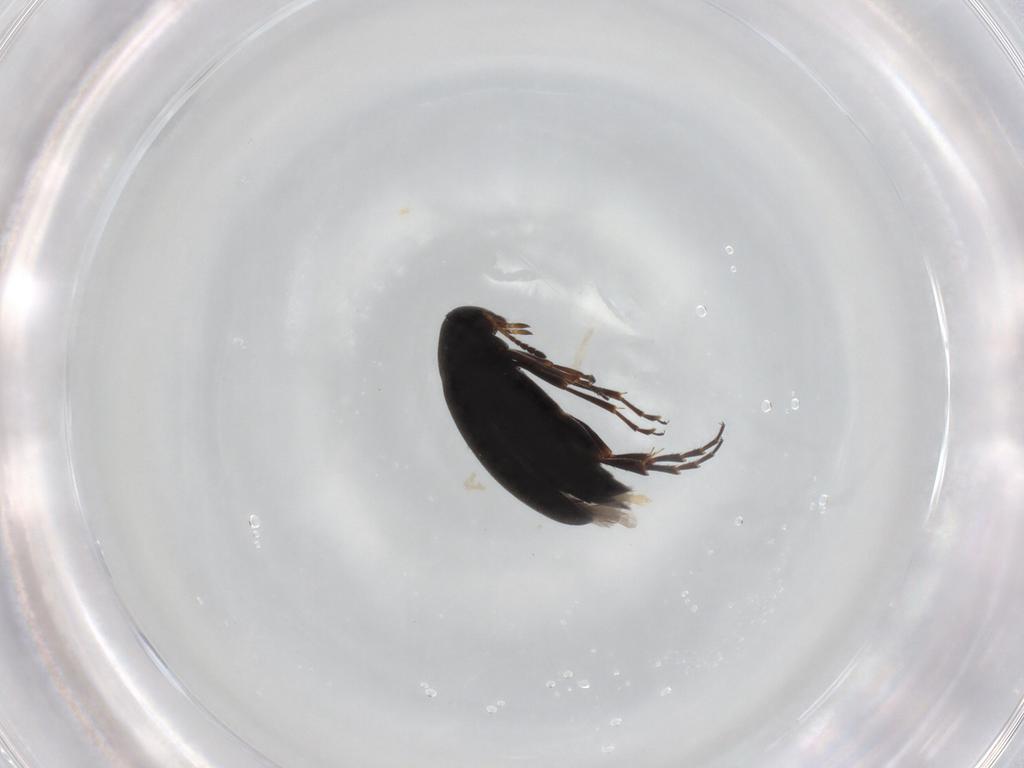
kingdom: Animalia
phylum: Arthropoda
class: Insecta
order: Coleoptera
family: Scraptiidae
